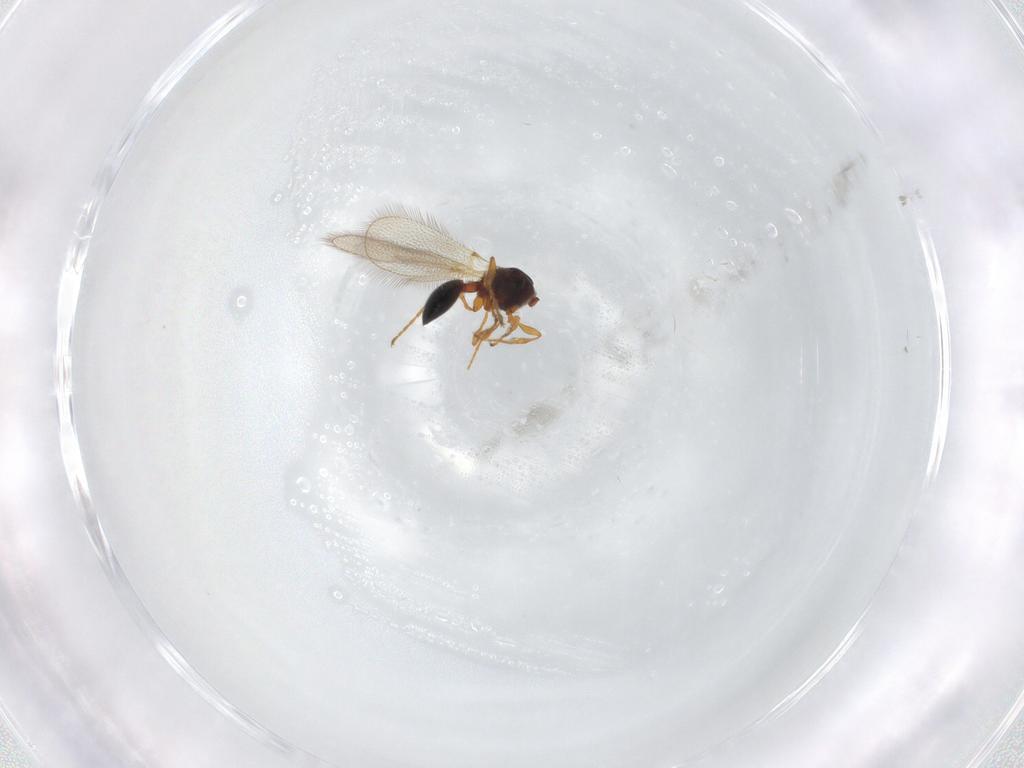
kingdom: Animalia
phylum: Arthropoda
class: Insecta
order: Hymenoptera
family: Diapriidae
